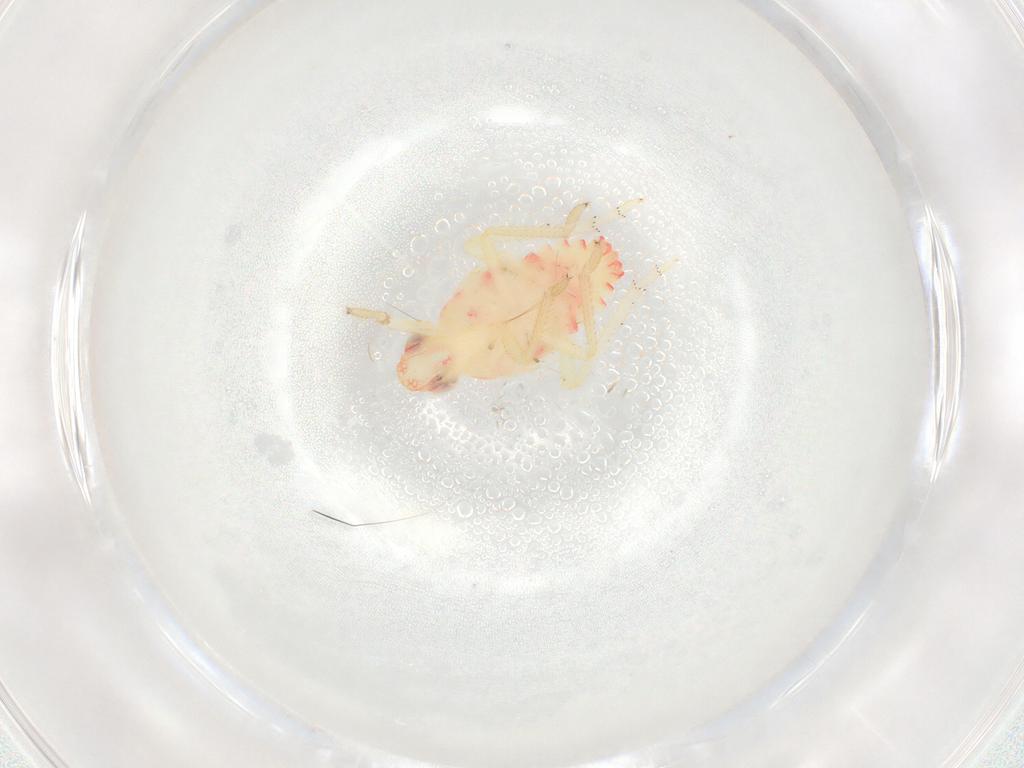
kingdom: Animalia
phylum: Arthropoda
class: Insecta
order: Hemiptera
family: Tropiduchidae
